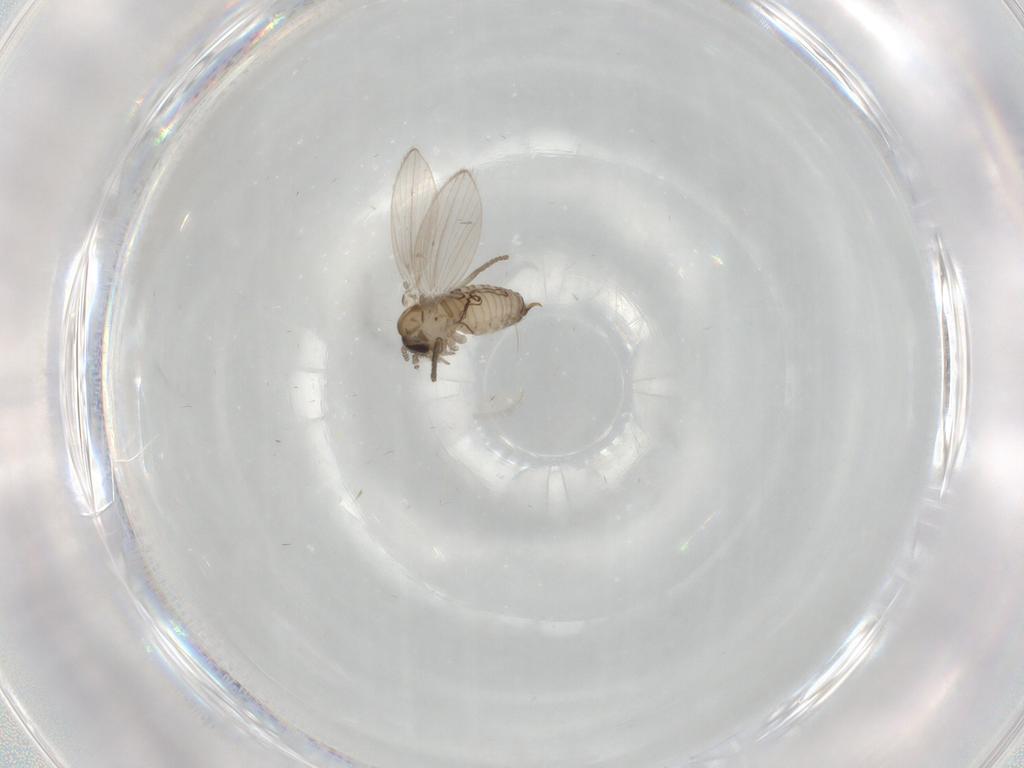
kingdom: Animalia
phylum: Arthropoda
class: Insecta
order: Diptera
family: Psychodidae
